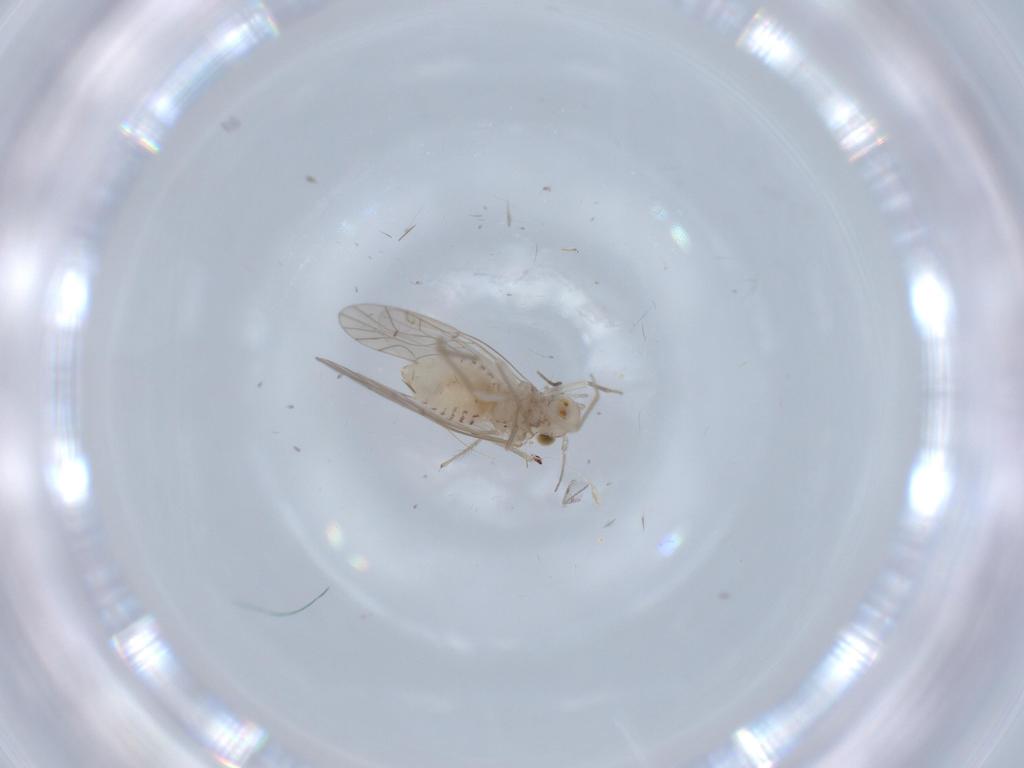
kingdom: Animalia
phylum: Arthropoda
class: Insecta
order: Psocodea
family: Lachesillidae
